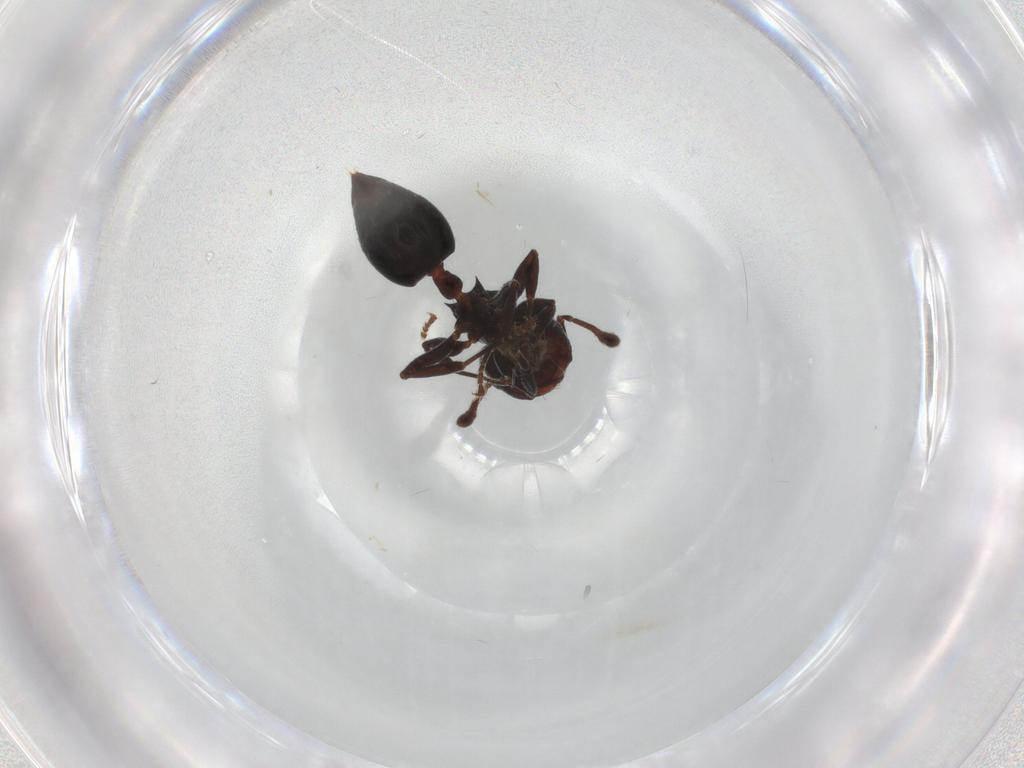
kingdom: Animalia
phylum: Arthropoda
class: Insecta
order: Hymenoptera
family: Formicidae
